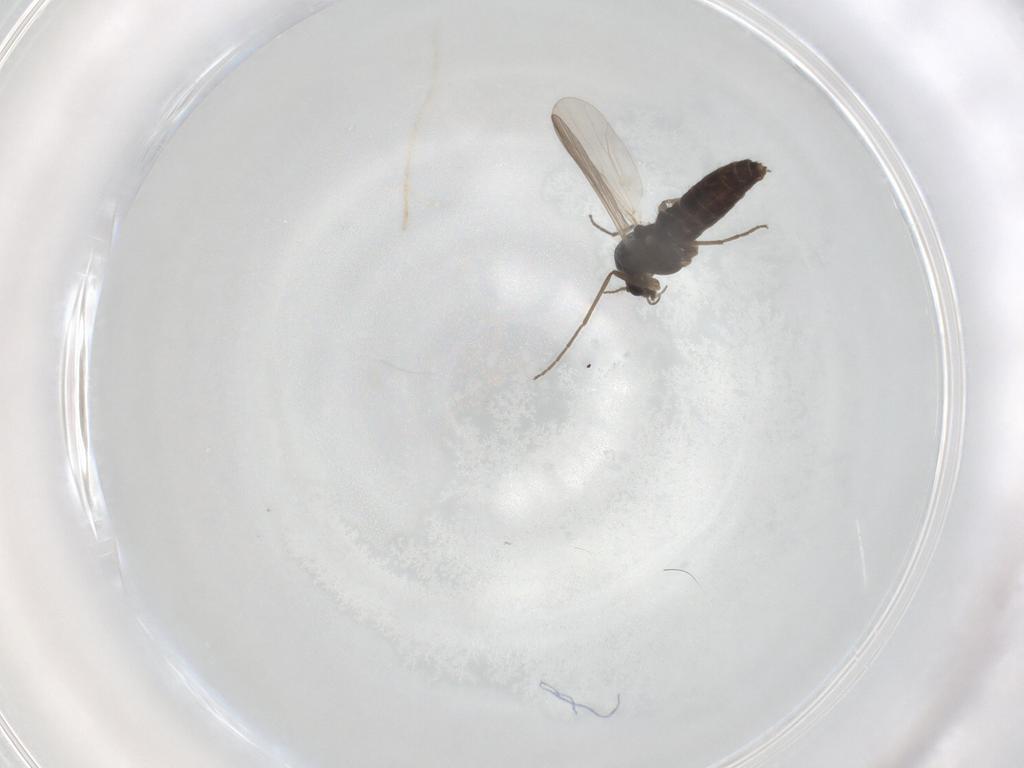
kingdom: Animalia
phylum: Arthropoda
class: Insecta
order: Diptera
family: Chironomidae
